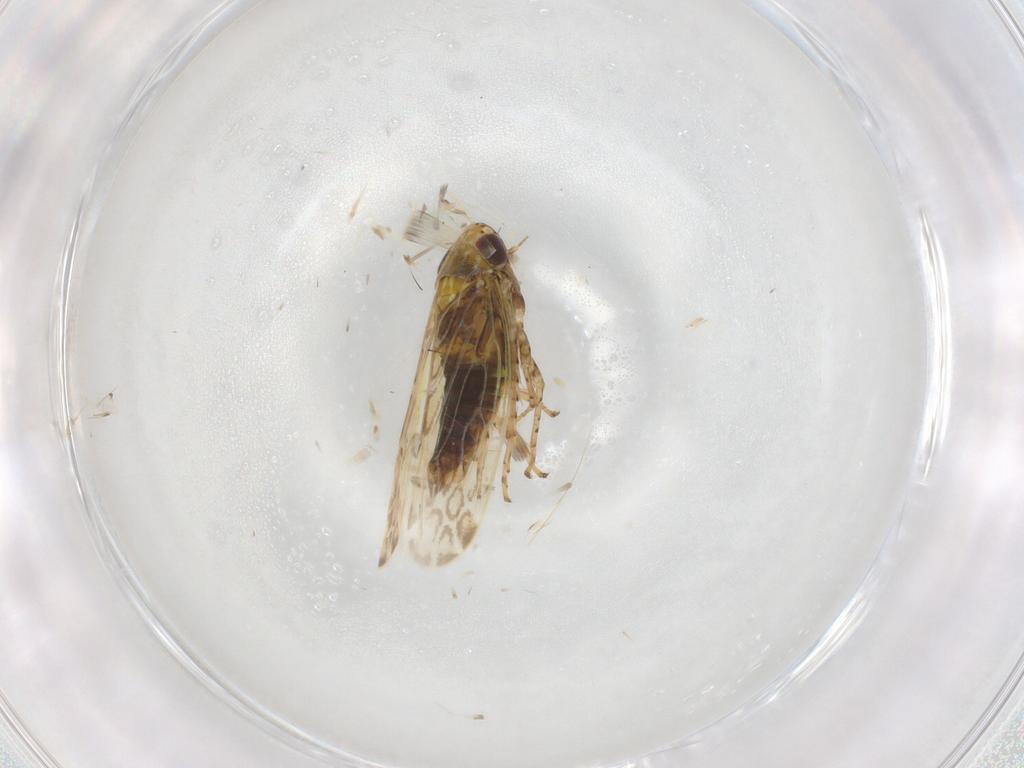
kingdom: Animalia
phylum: Arthropoda
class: Insecta
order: Hemiptera
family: Cicadellidae
